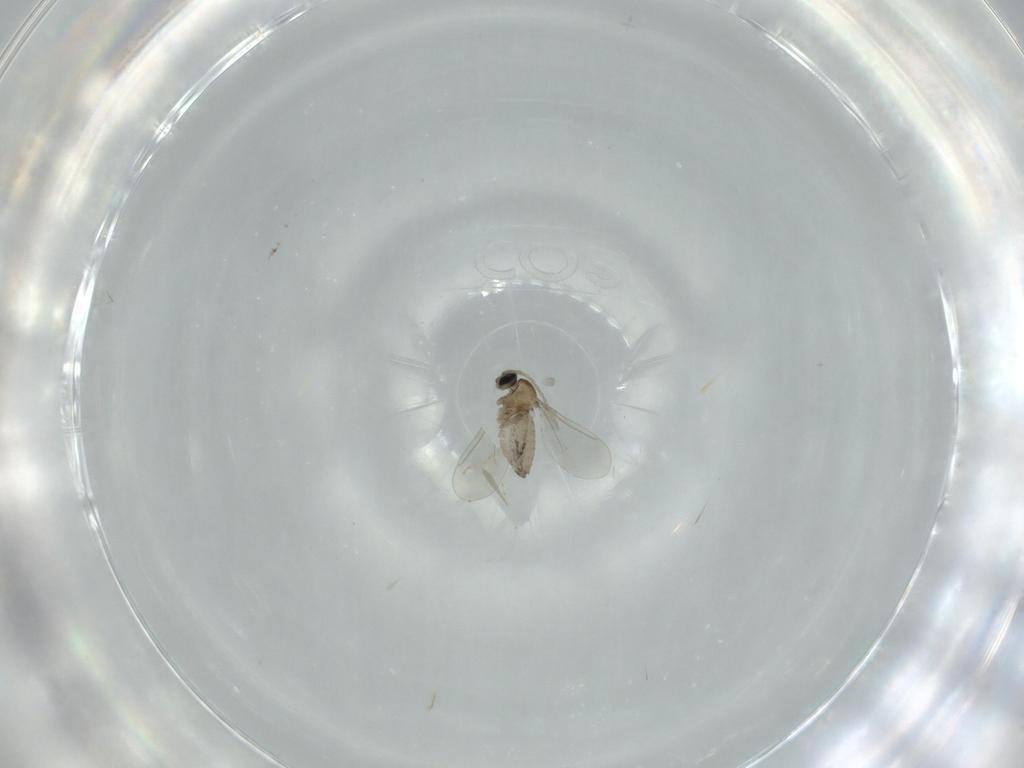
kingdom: Animalia
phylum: Arthropoda
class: Insecta
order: Diptera
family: Cecidomyiidae
